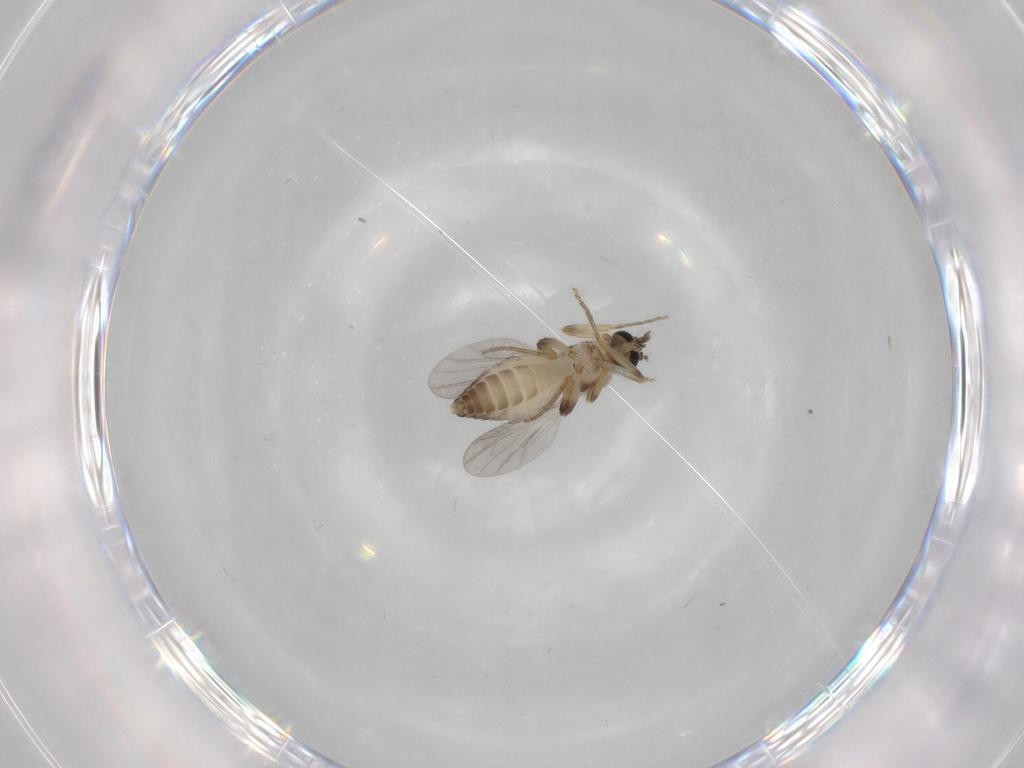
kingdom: Animalia
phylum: Arthropoda
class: Insecta
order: Diptera
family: Ceratopogonidae
